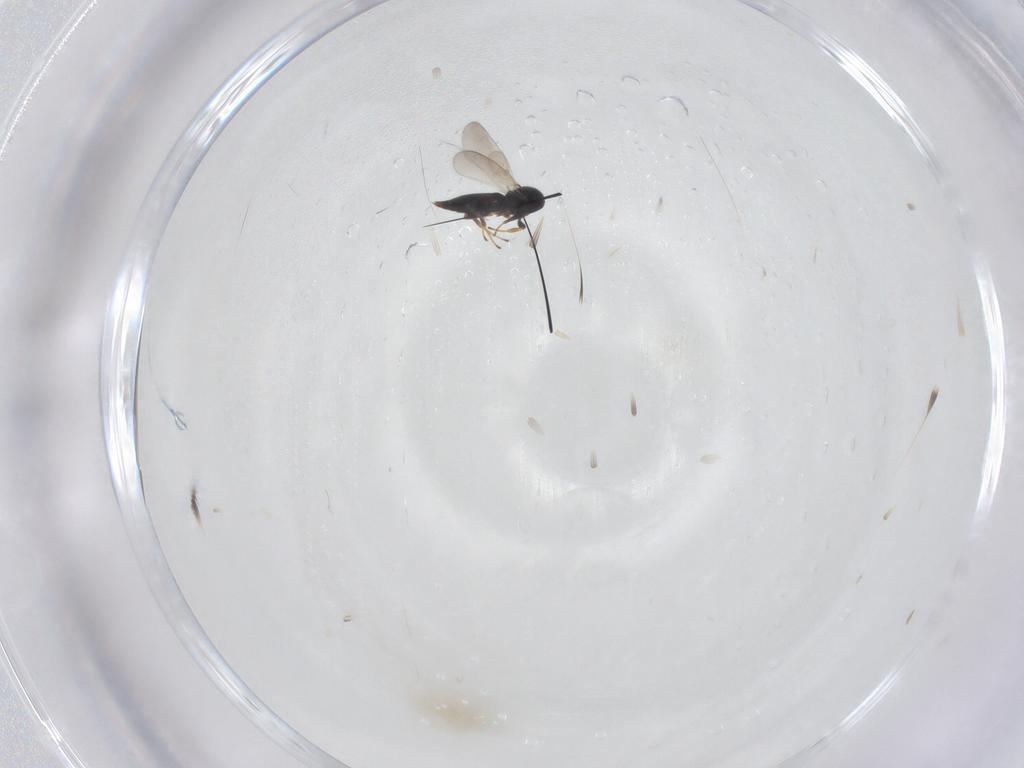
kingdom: Animalia
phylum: Arthropoda
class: Insecta
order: Hymenoptera
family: Platygastridae
